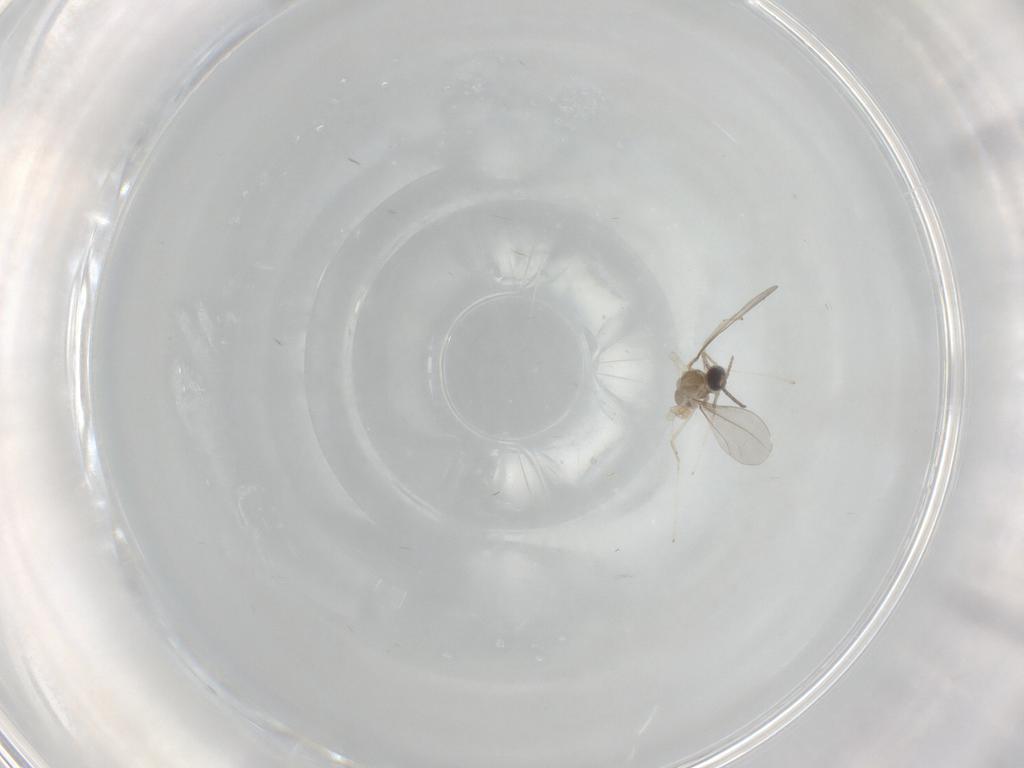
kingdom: Animalia
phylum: Arthropoda
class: Insecta
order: Diptera
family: Cecidomyiidae
